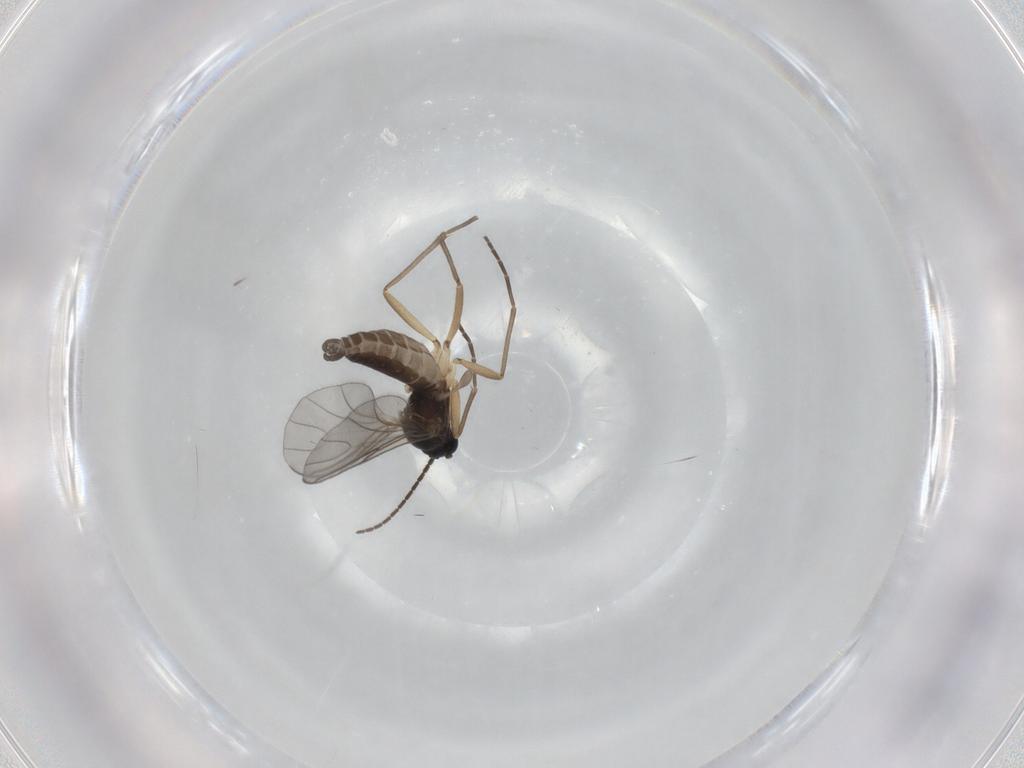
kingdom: Animalia
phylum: Arthropoda
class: Insecta
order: Diptera
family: Sciaridae
